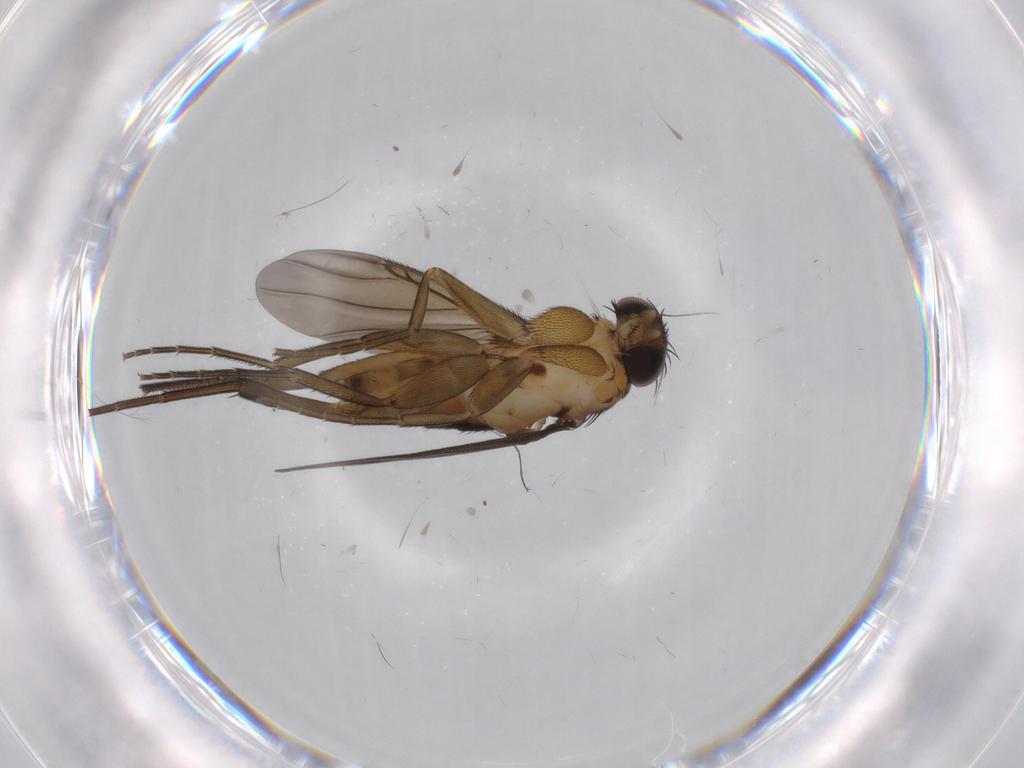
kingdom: Animalia
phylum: Arthropoda
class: Insecta
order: Diptera
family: Phoridae
